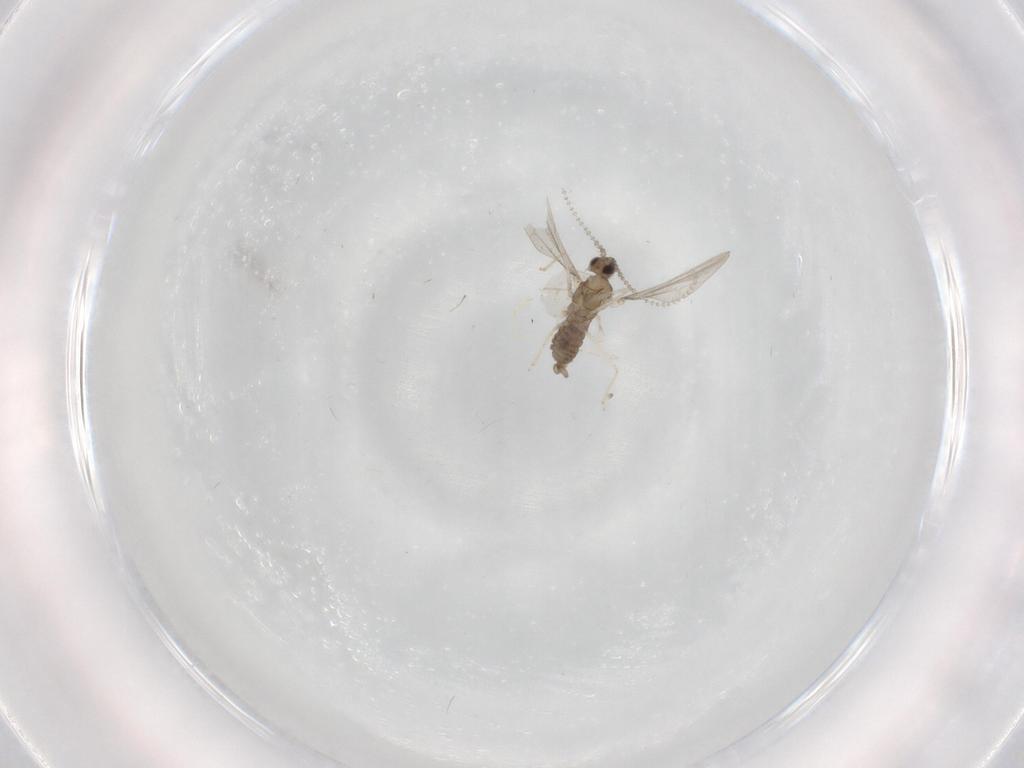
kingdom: Animalia
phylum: Arthropoda
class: Insecta
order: Diptera
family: Cecidomyiidae
